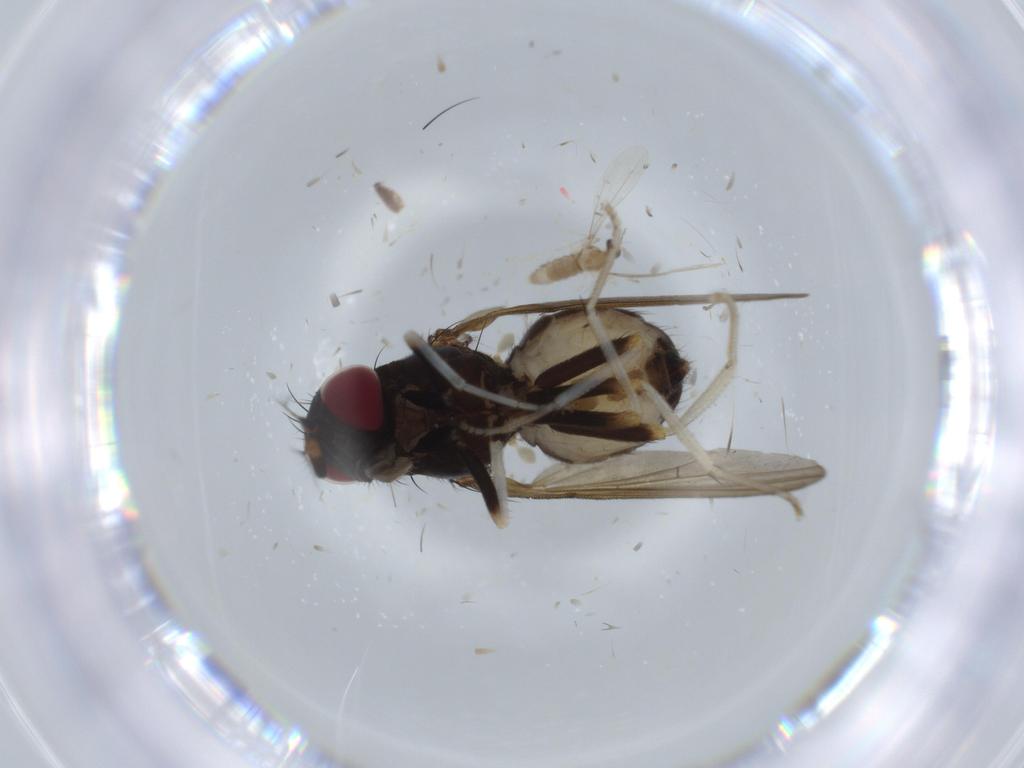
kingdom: Animalia
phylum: Arthropoda
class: Insecta
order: Diptera
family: Cecidomyiidae
